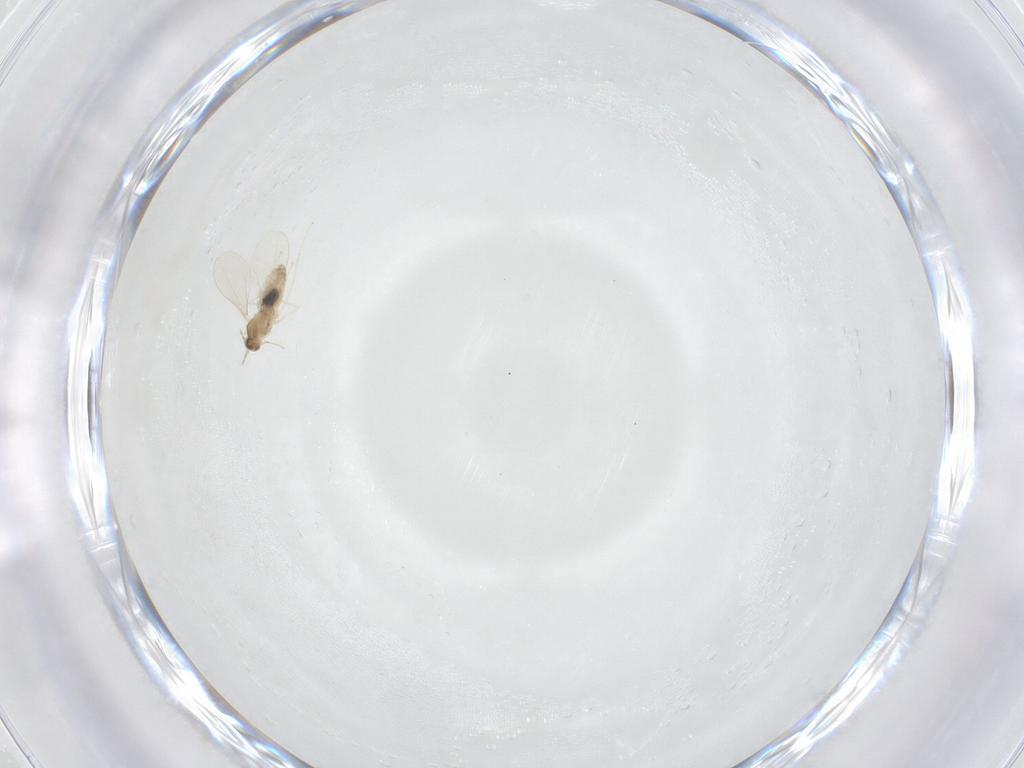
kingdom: Animalia
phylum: Arthropoda
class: Insecta
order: Diptera
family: Cecidomyiidae
